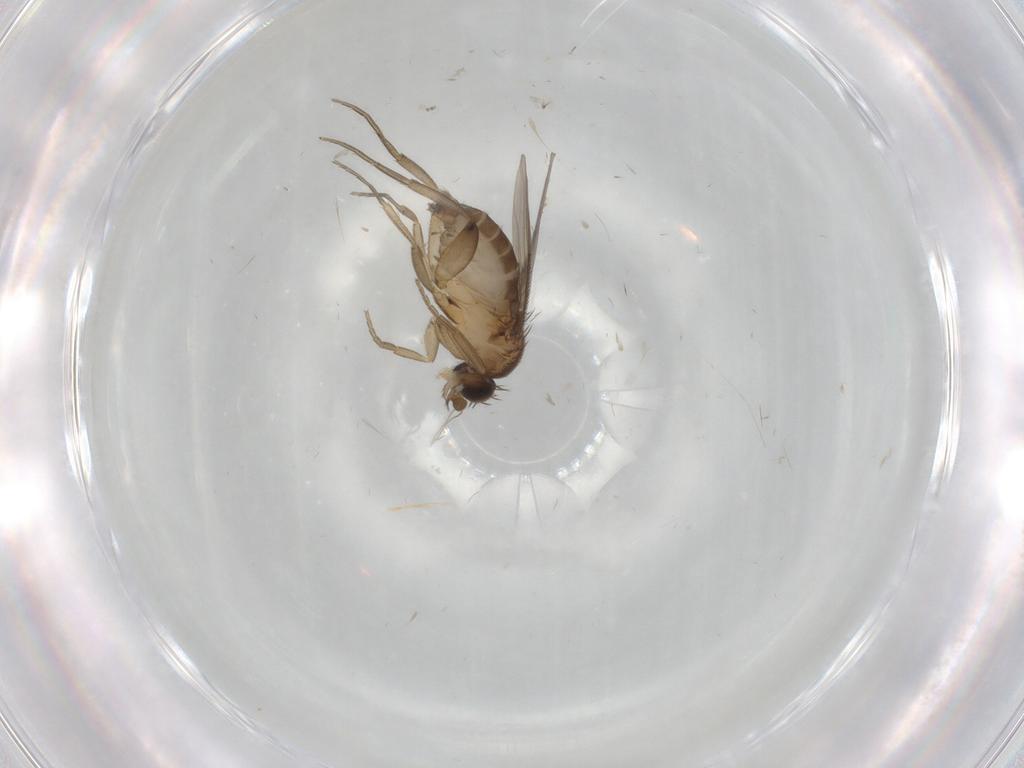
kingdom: Animalia
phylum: Arthropoda
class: Insecta
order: Diptera
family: Phoridae
